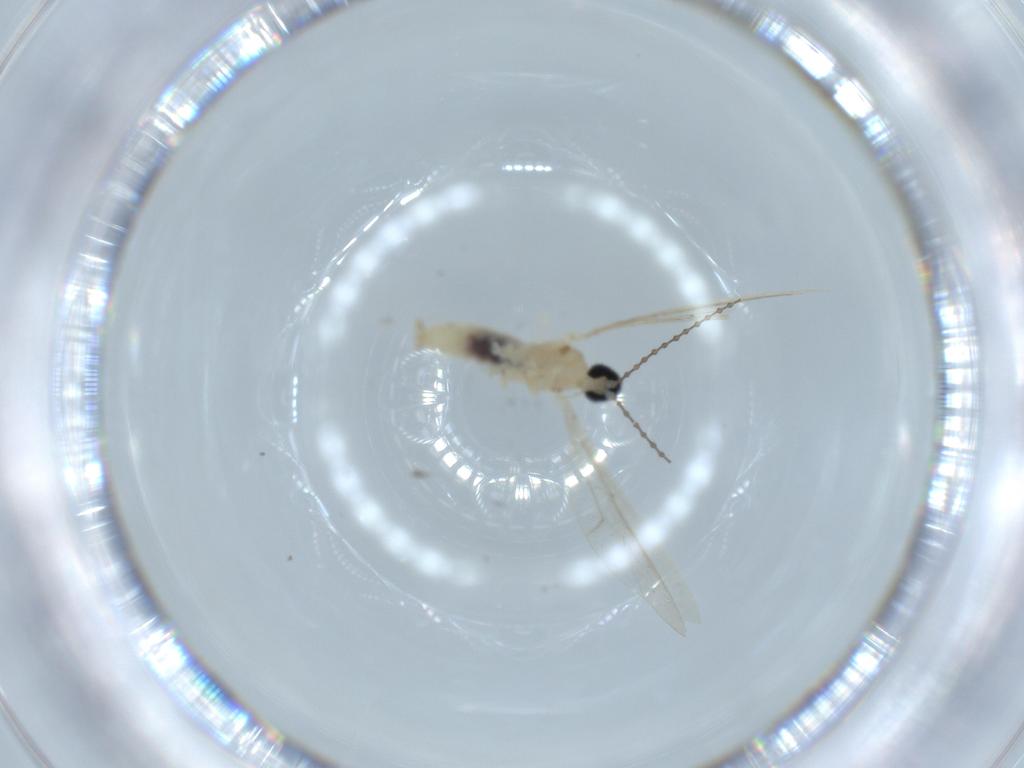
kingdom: Animalia
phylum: Arthropoda
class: Insecta
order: Diptera
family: Cecidomyiidae
